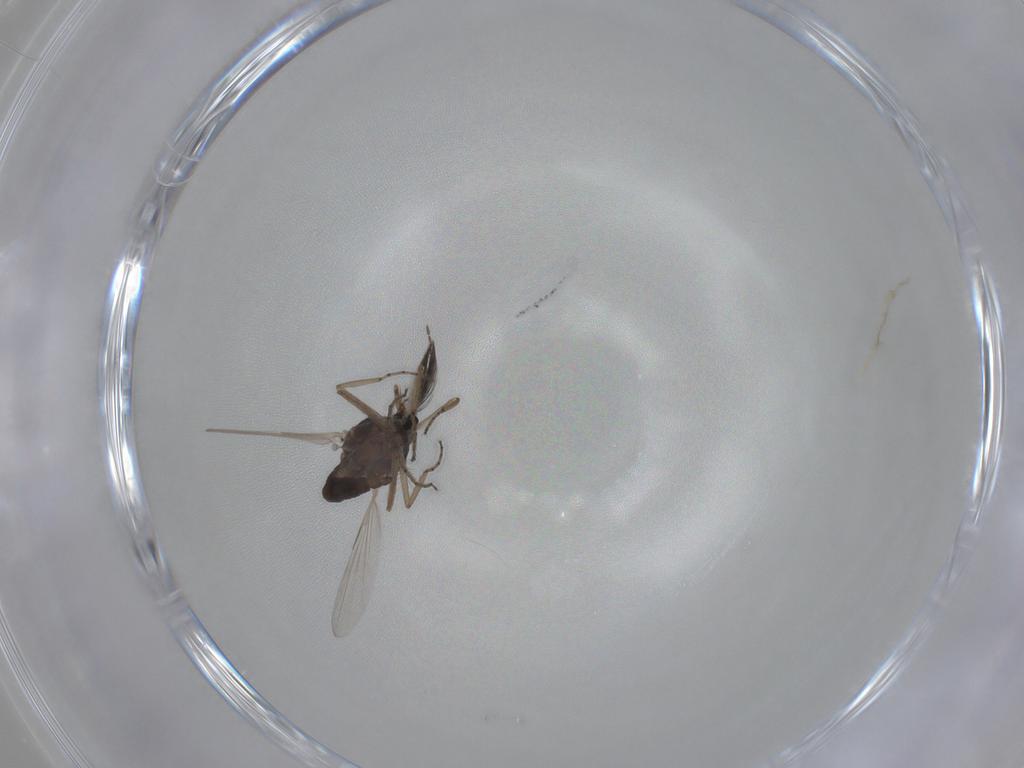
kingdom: Animalia
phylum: Arthropoda
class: Insecta
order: Diptera
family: Ceratopogonidae
